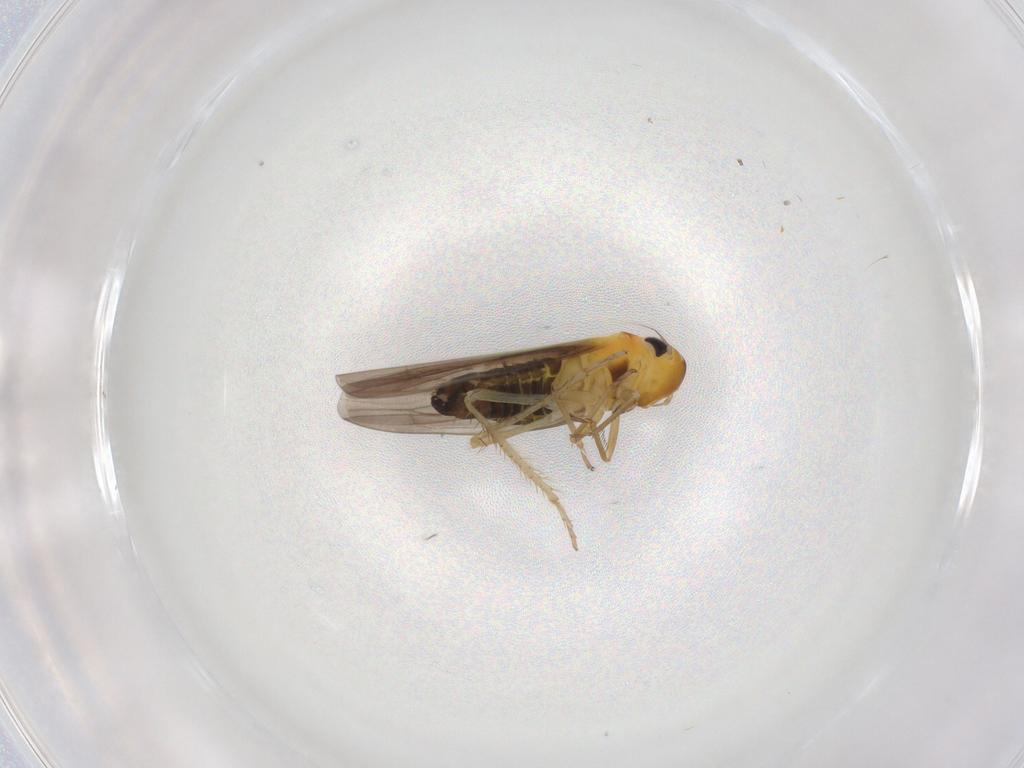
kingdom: Animalia
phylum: Arthropoda
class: Insecta
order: Hemiptera
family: Cicadellidae
